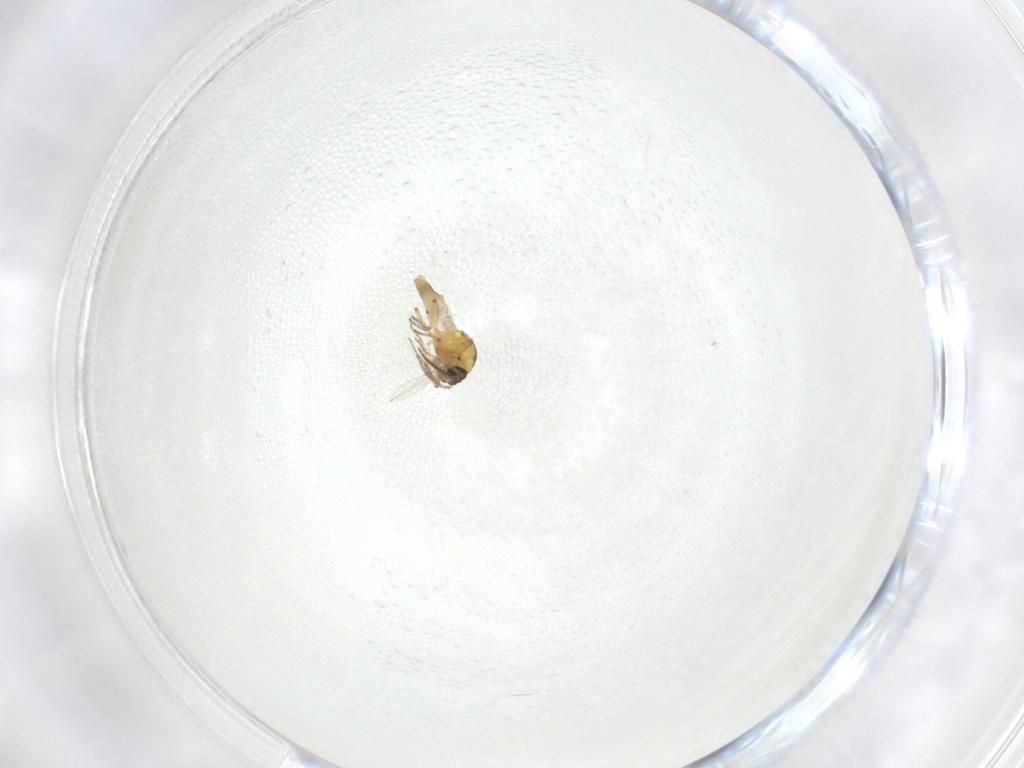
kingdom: Animalia
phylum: Arthropoda
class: Insecta
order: Diptera
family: Ceratopogonidae
